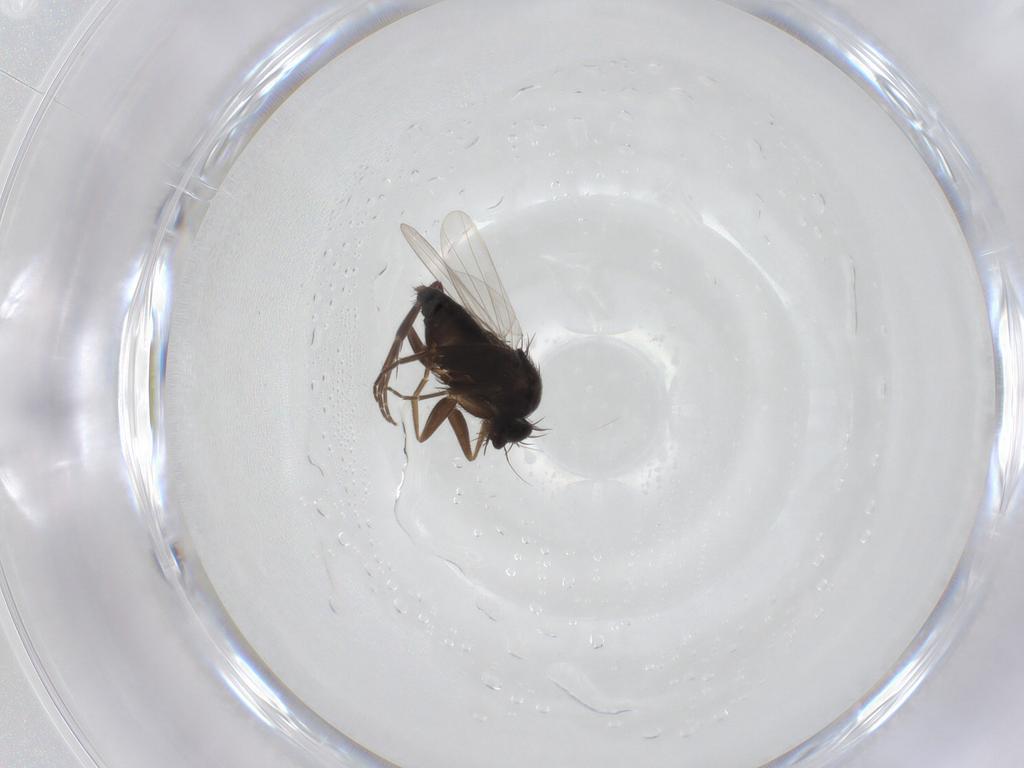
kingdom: Animalia
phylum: Arthropoda
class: Insecta
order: Diptera
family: Phoridae
